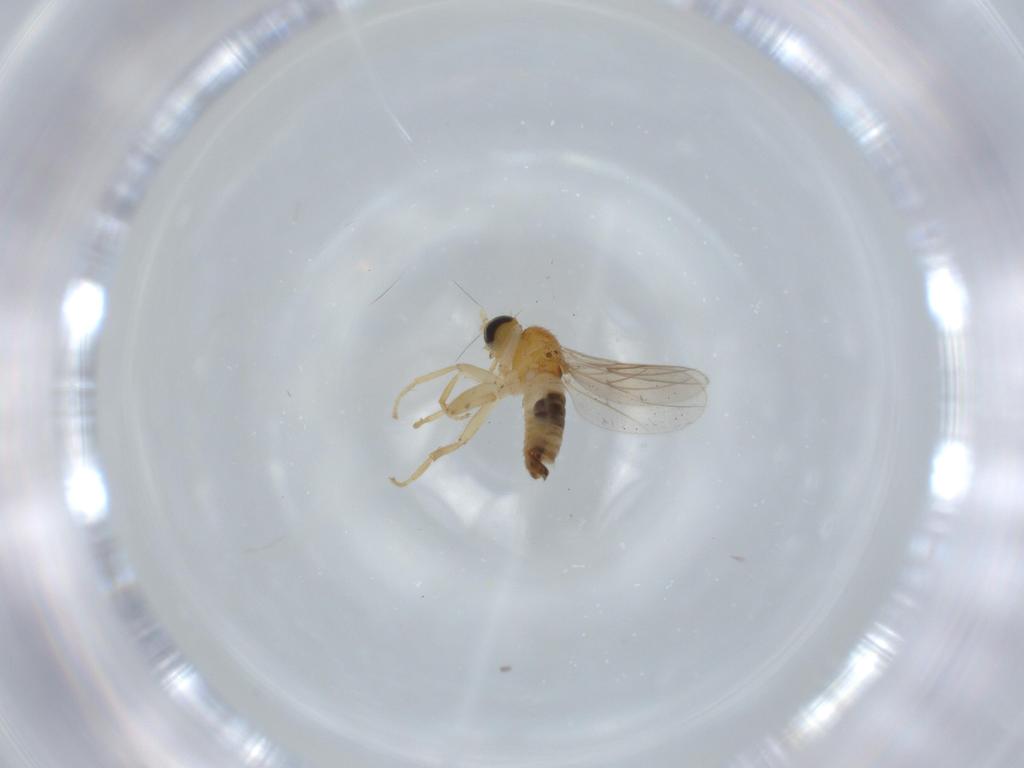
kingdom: Animalia
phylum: Arthropoda
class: Insecta
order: Diptera
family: Hybotidae
